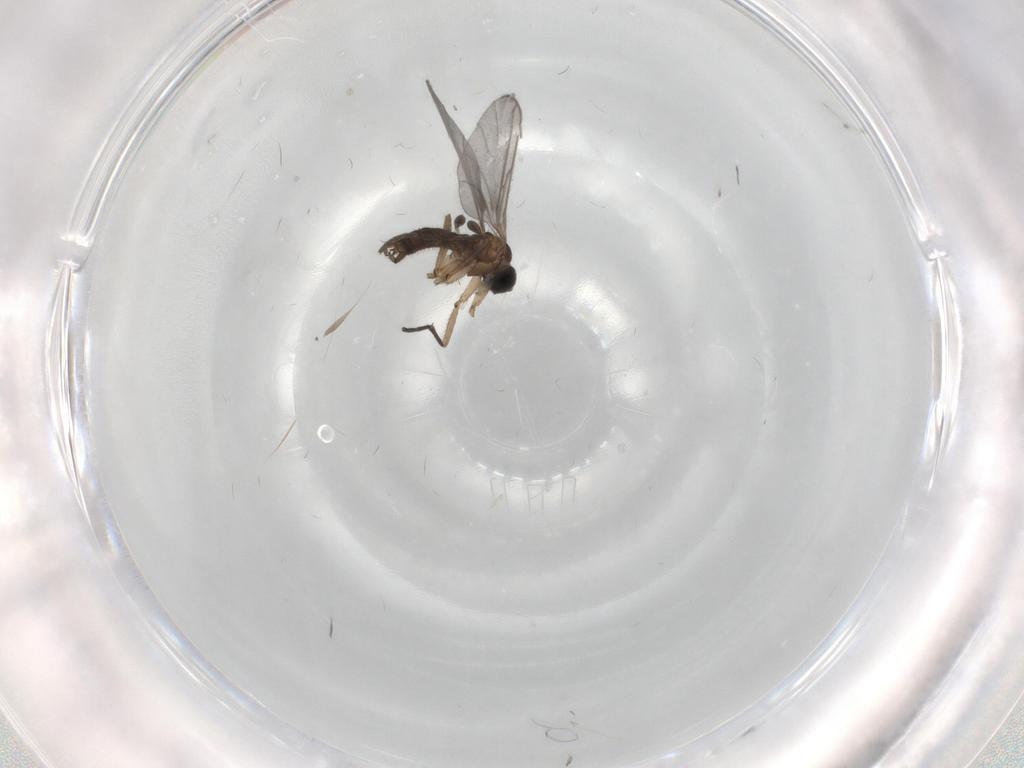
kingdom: Animalia
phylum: Arthropoda
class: Insecta
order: Diptera
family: Sciaridae
